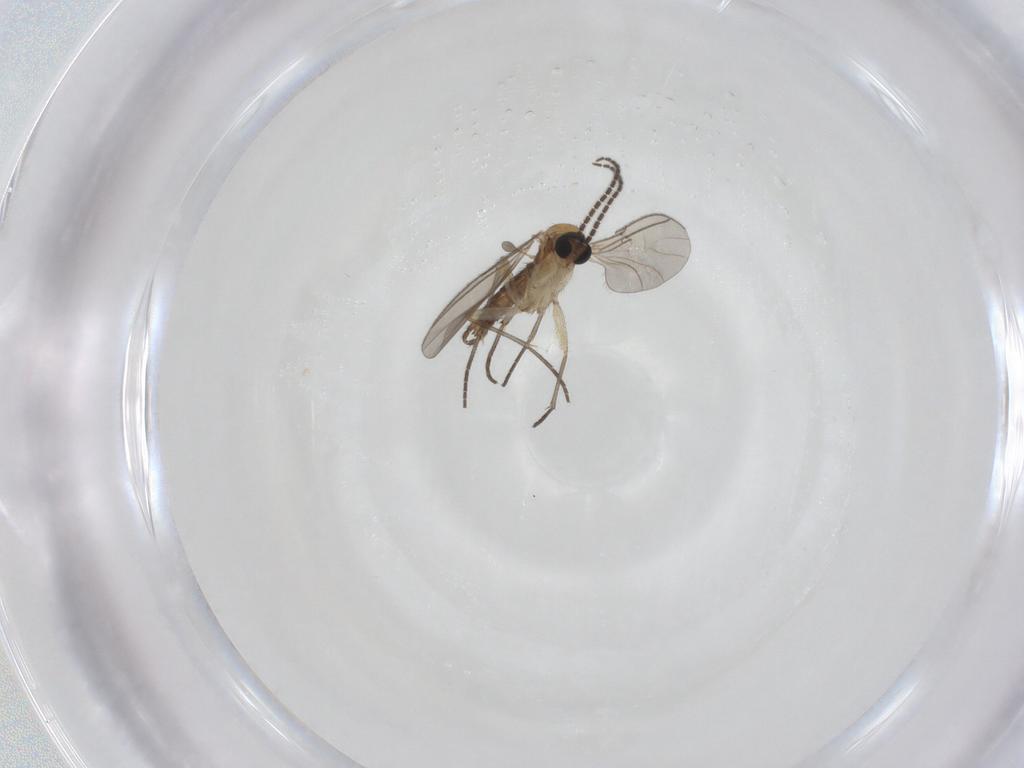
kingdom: Animalia
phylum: Arthropoda
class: Insecta
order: Diptera
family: Sciaridae
